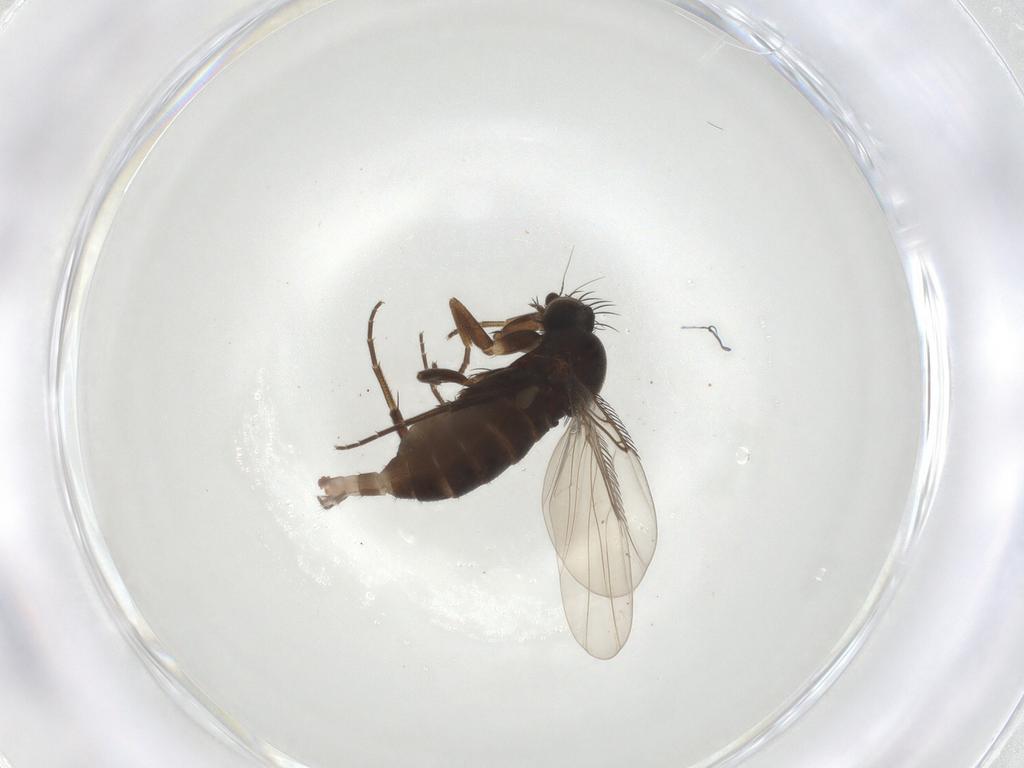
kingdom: Animalia
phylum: Arthropoda
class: Insecta
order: Diptera
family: Phoridae
